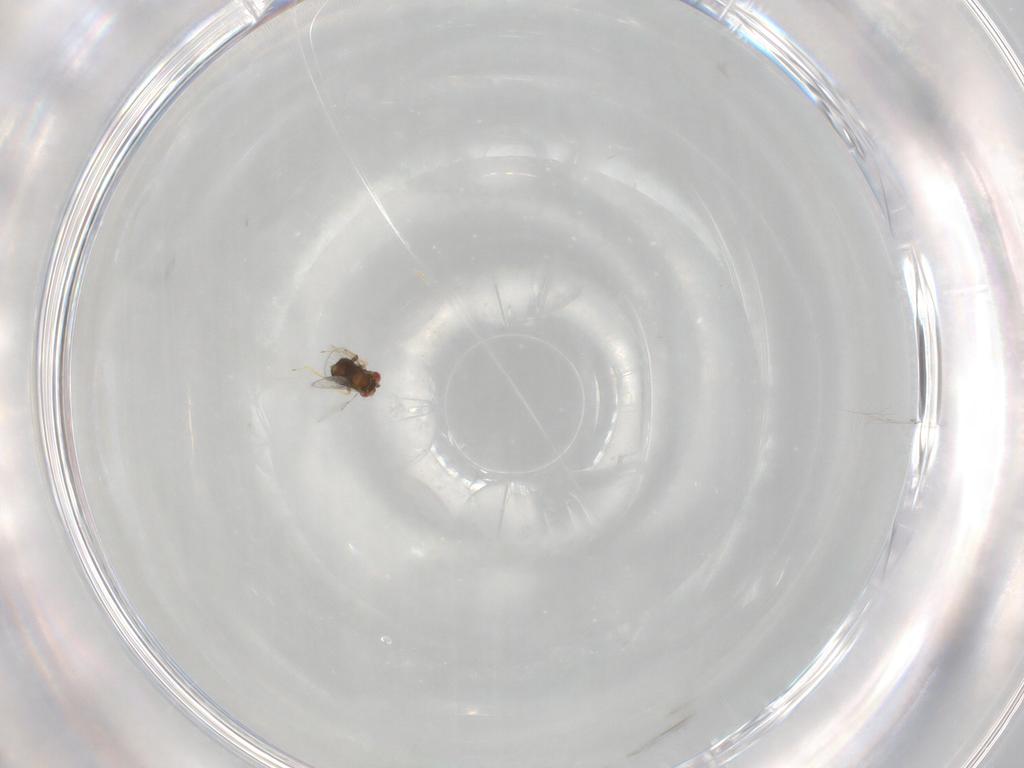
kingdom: Animalia
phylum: Arthropoda
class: Insecta
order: Hymenoptera
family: Trichogrammatidae
